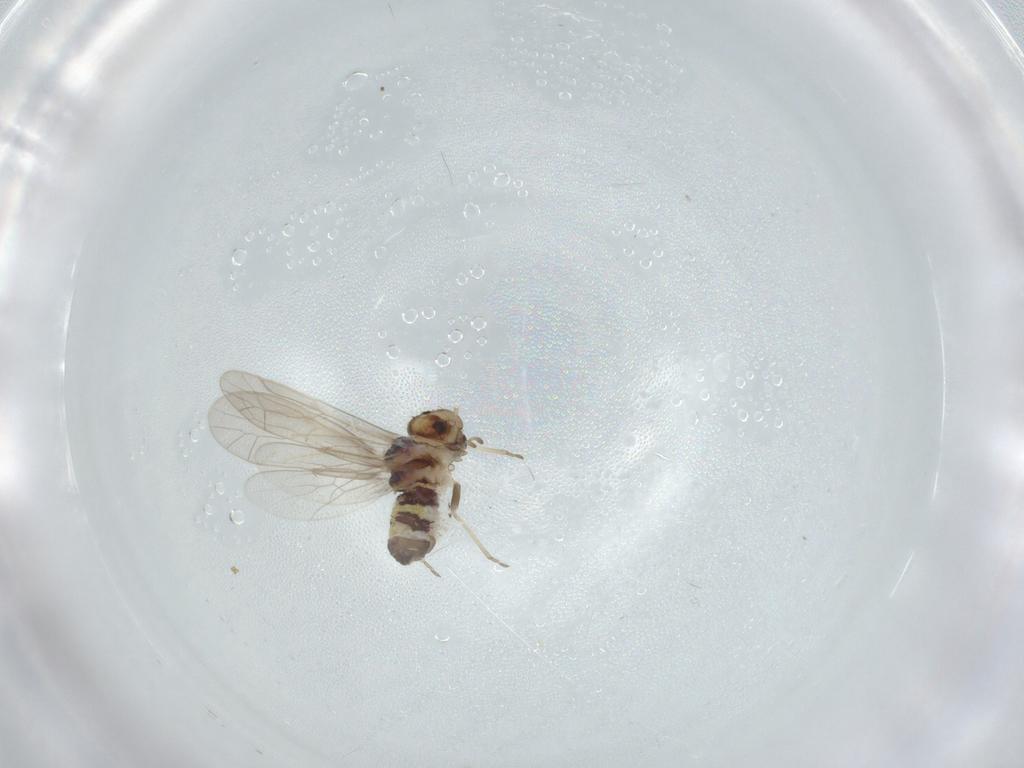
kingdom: Animalia
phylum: Arthropoda
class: Insecta
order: Psocodea
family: Ectopsocidae
